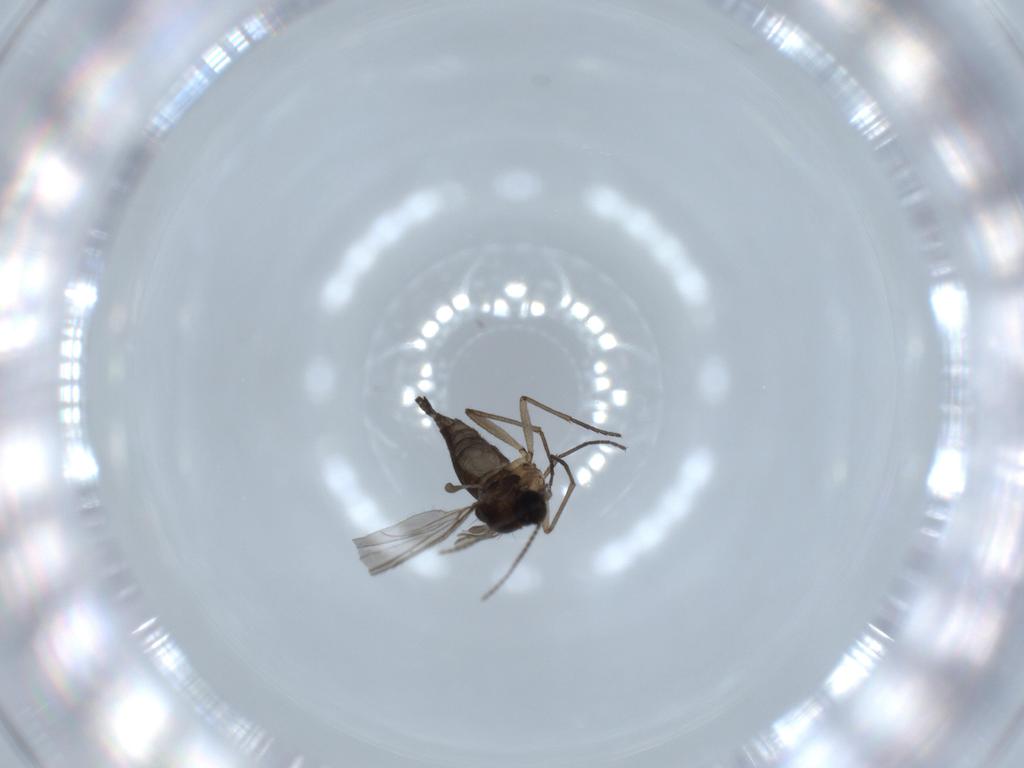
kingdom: Animalia
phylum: Arthropoda
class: Insecta
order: Diptera
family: Sciaridae
